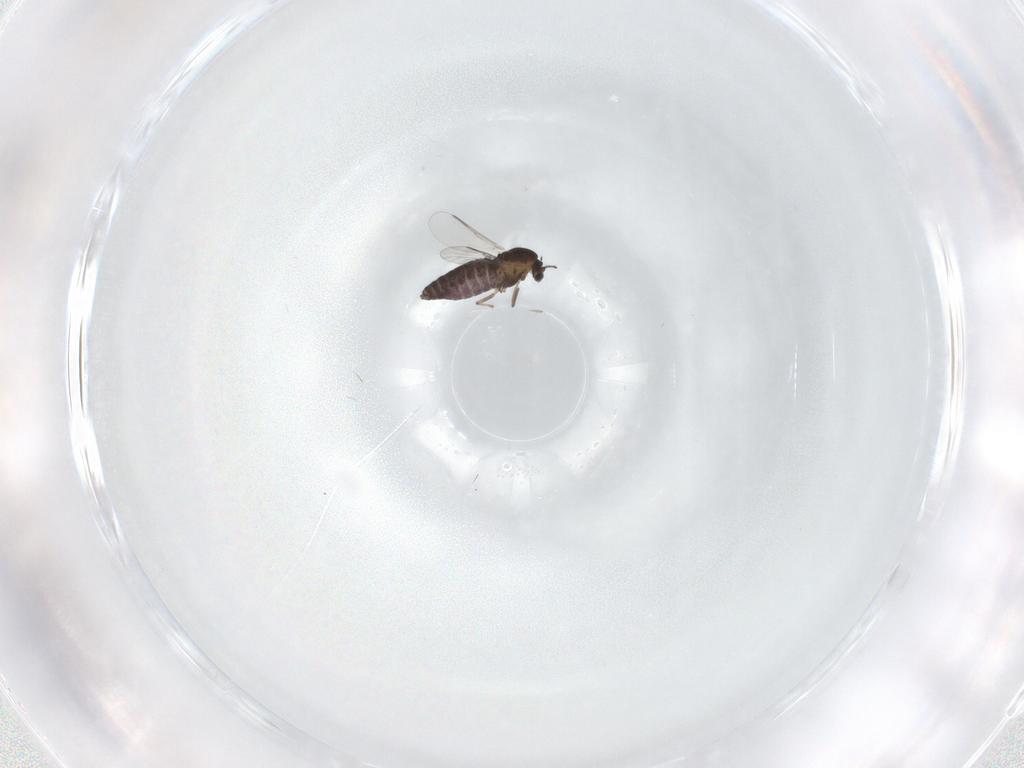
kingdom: Animalia
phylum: Arthropoda
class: Insecta
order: Diptera
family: Chironomidae
